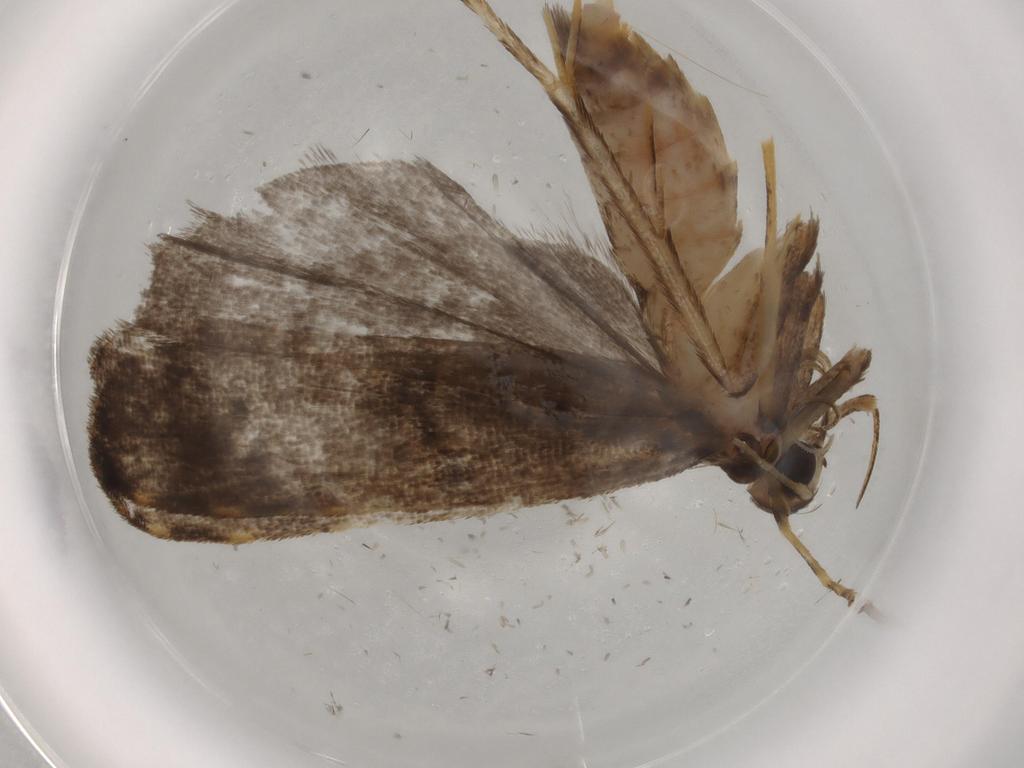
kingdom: Animalia
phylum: Arthropoda
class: Insecta
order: Lepidoptera
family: Cosmopterigidae
